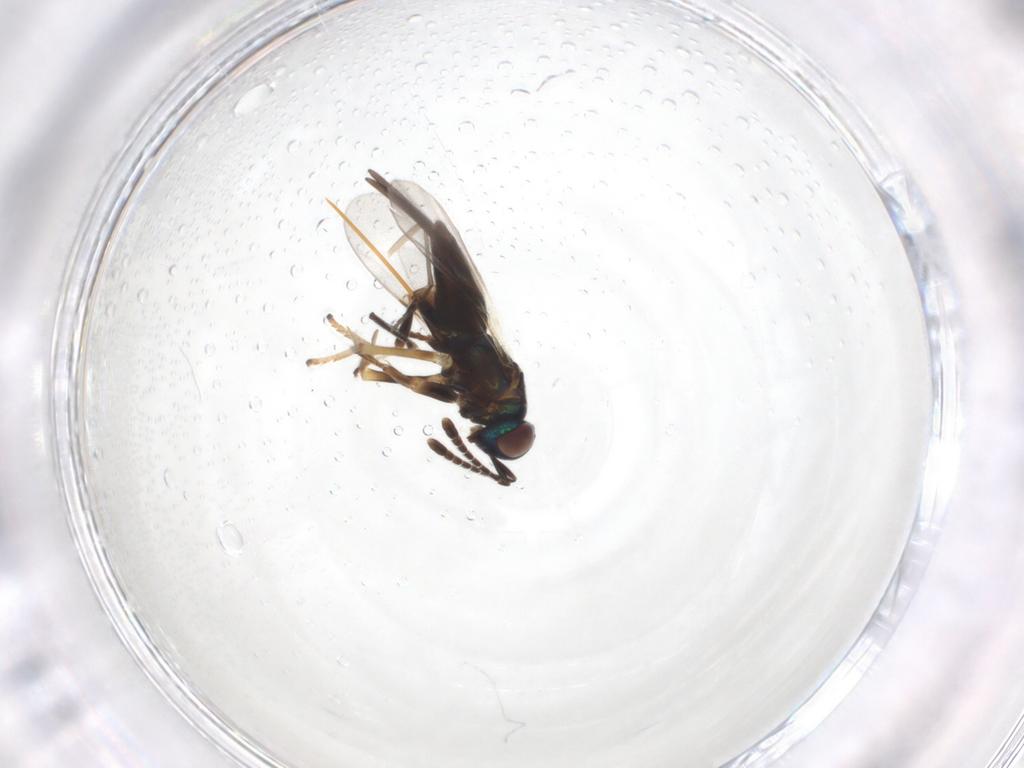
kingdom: Animalia
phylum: Arthropoda
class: Insecta
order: Hymenoptera
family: Encyrtidae
